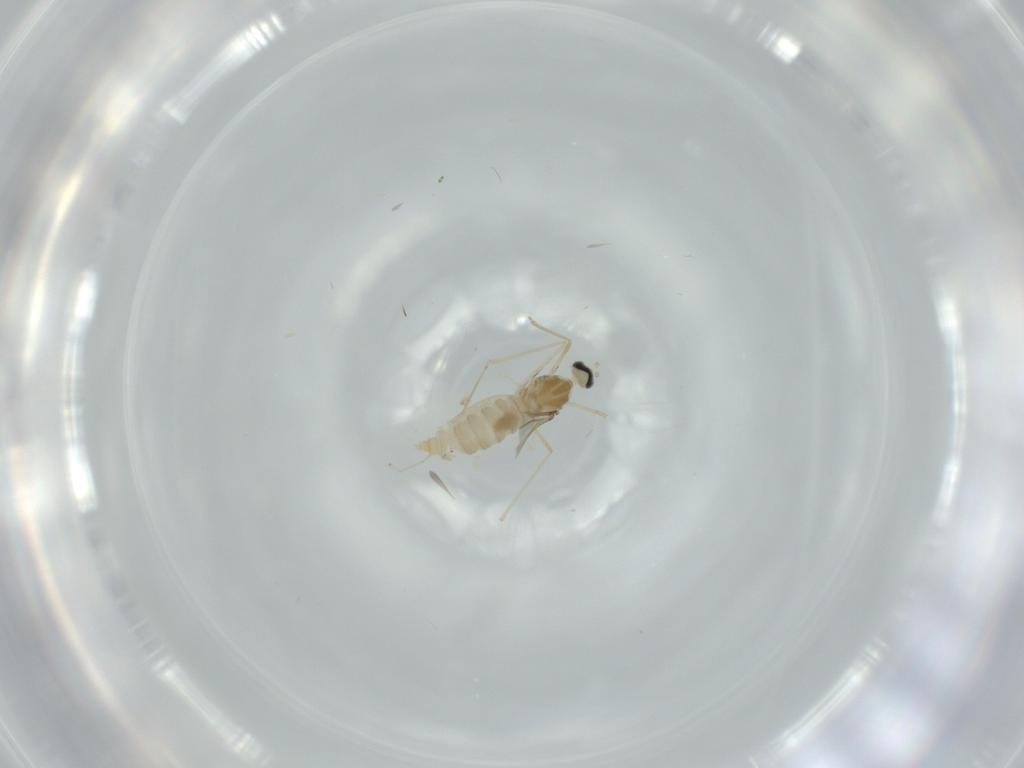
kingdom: Animalia
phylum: Arthropoda
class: Insecta
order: Diptera
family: Cecidomyiidae
